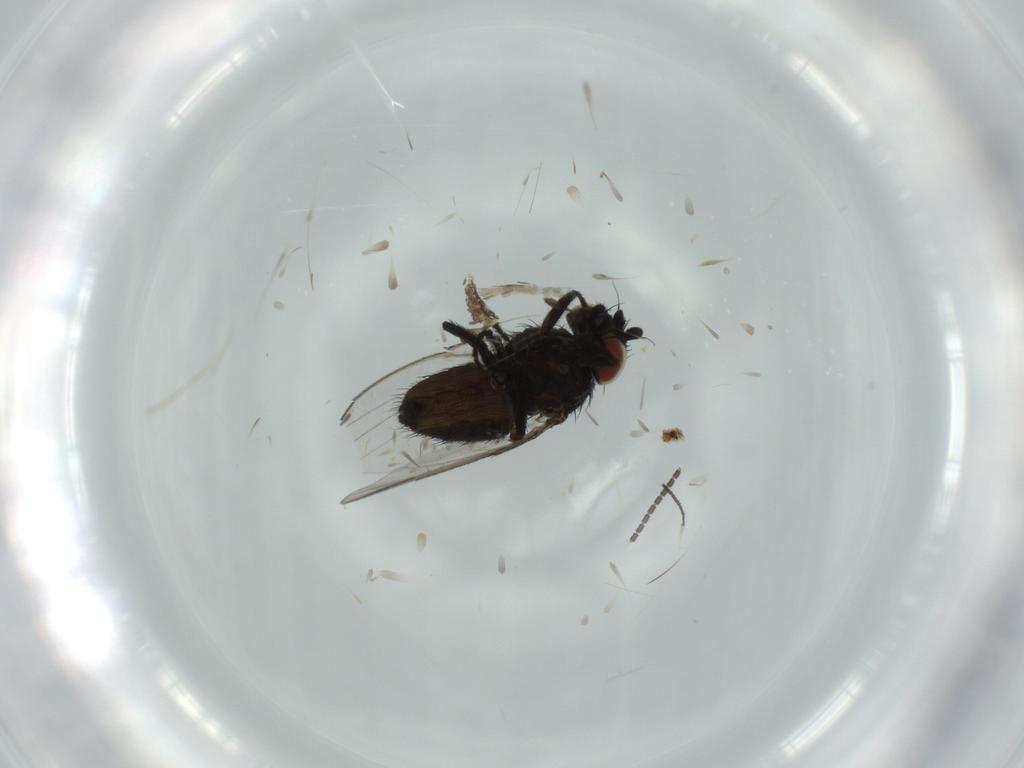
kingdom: Animalia
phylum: Arthropoda
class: Insecta
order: Diptera
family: Milichiidae
